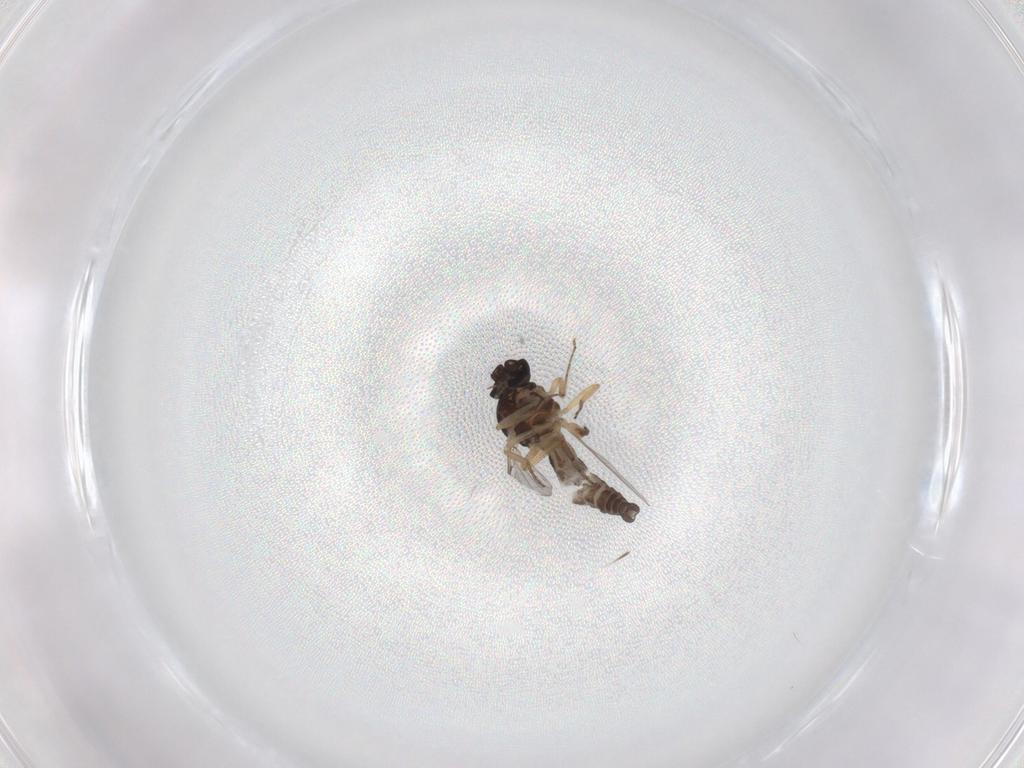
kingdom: Animalia
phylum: Arthropoda
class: Insecta
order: Diptera
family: Ceratopogonidae
